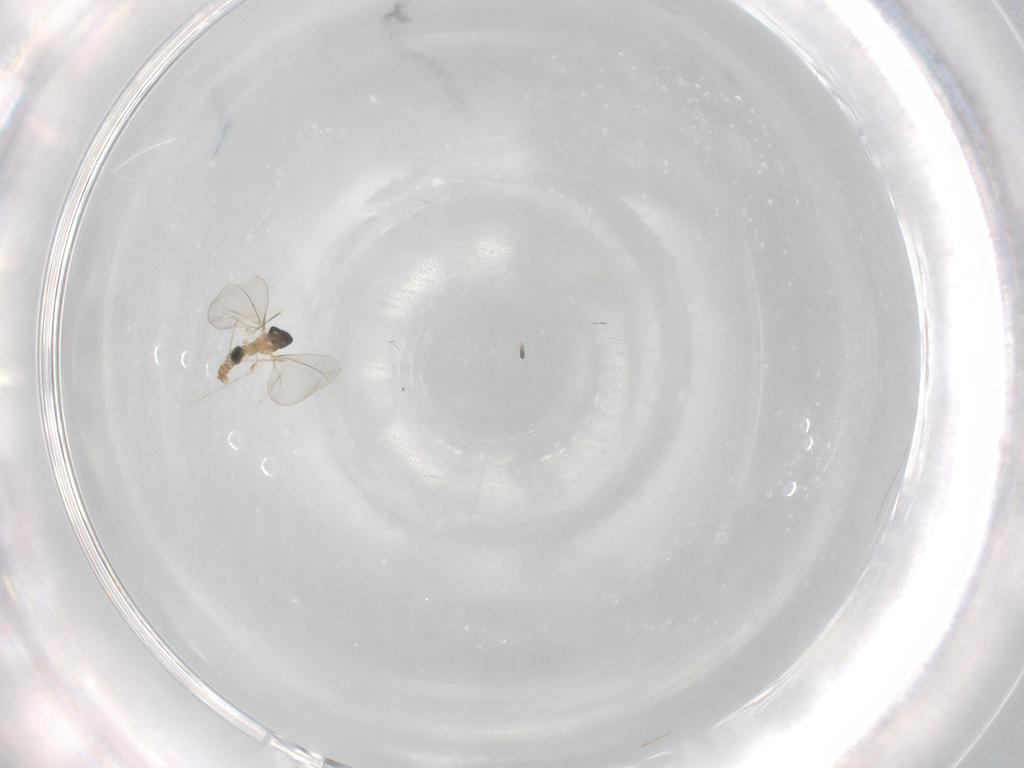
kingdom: Animalia
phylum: Arthropoda
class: Insecta
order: Diptera
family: Cecidomyiidae
